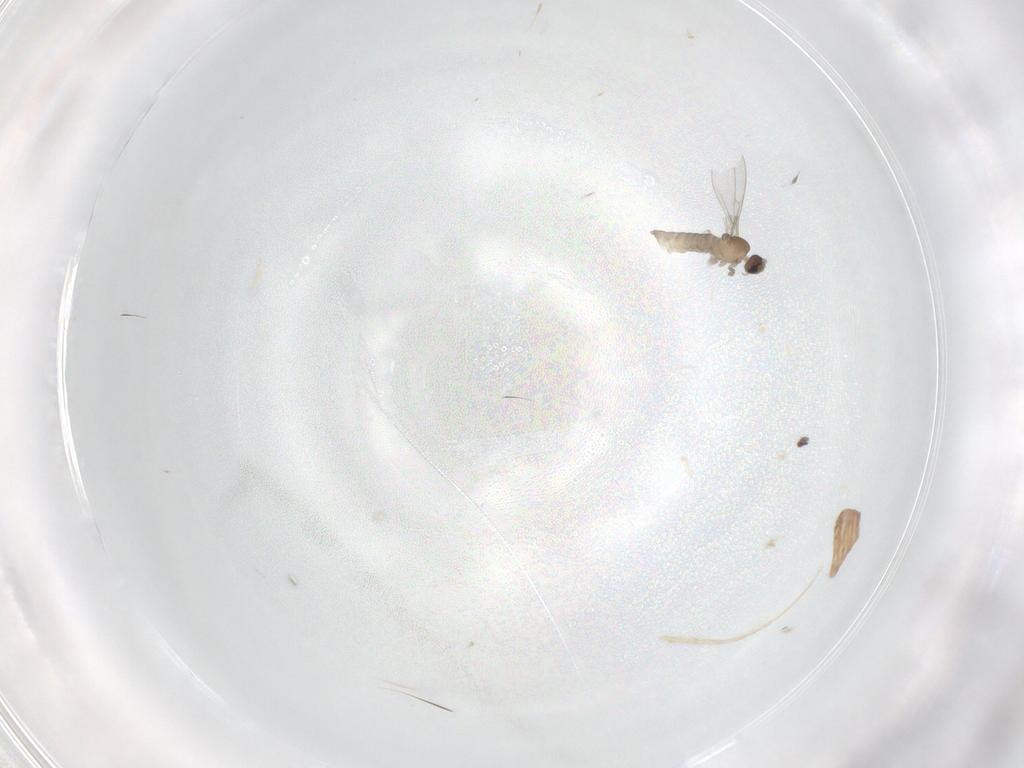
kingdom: Animalia
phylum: Arthropoda
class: Insecta
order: Diptera
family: Cecidomyiidae
